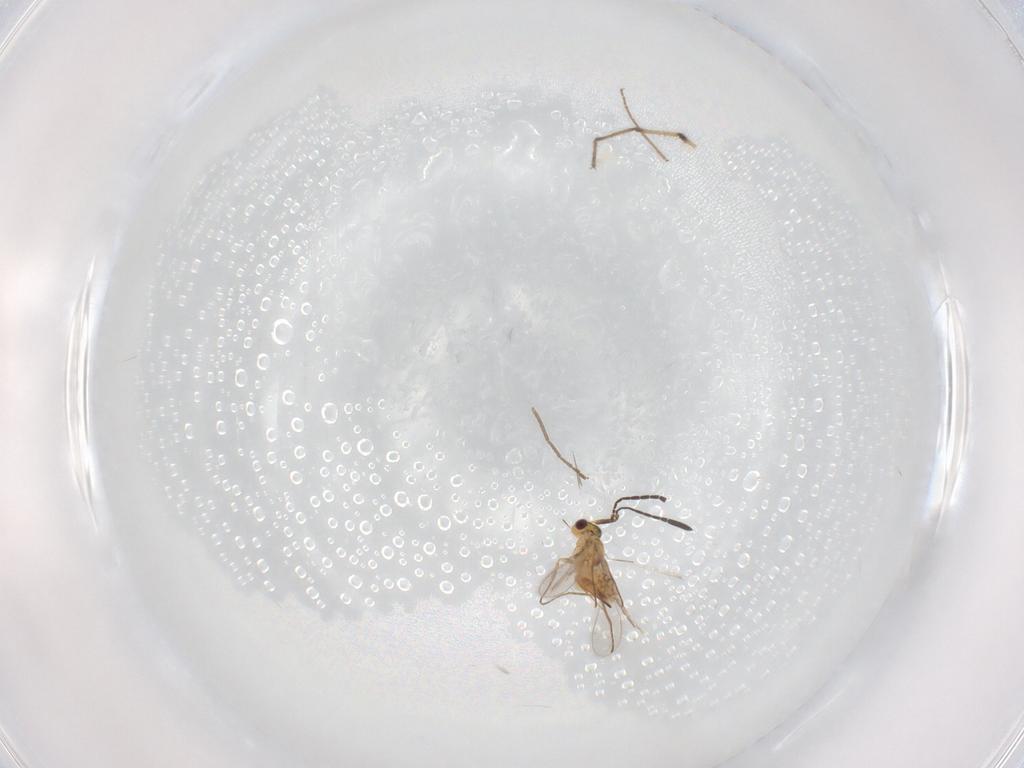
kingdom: Animalia
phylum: Arthropoda
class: Insecta
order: Hymenoptera
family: Mymaridae
